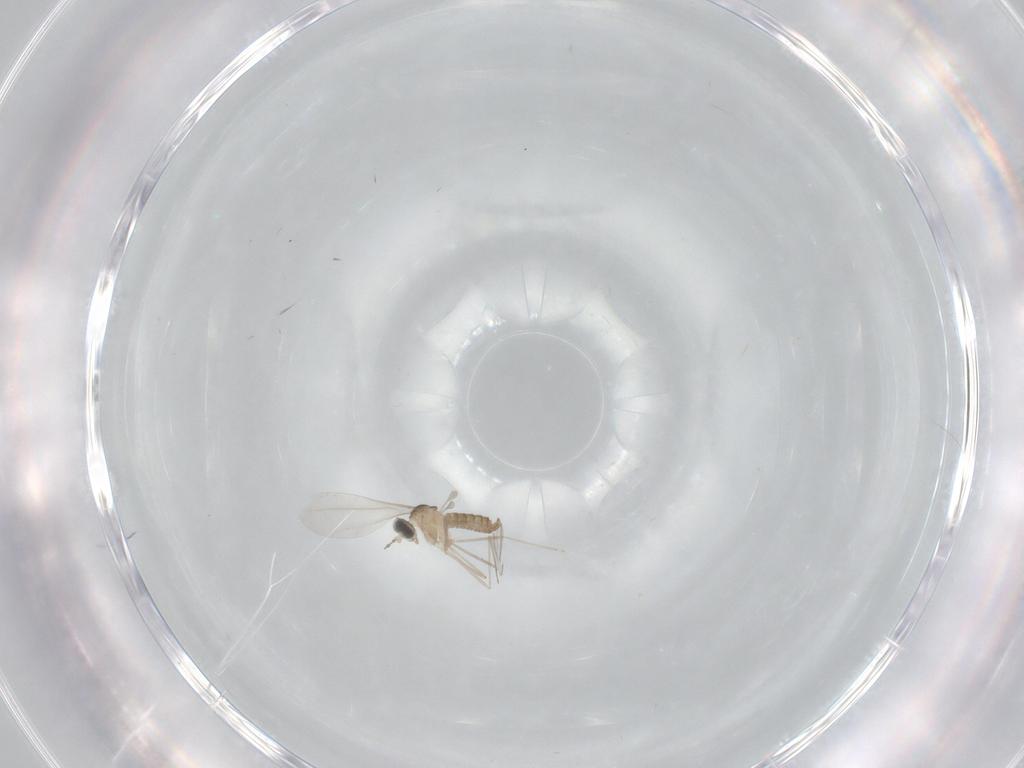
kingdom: Animalia
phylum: Arthropoda
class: Insecta
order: Diptera
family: Cecidomyiidae
